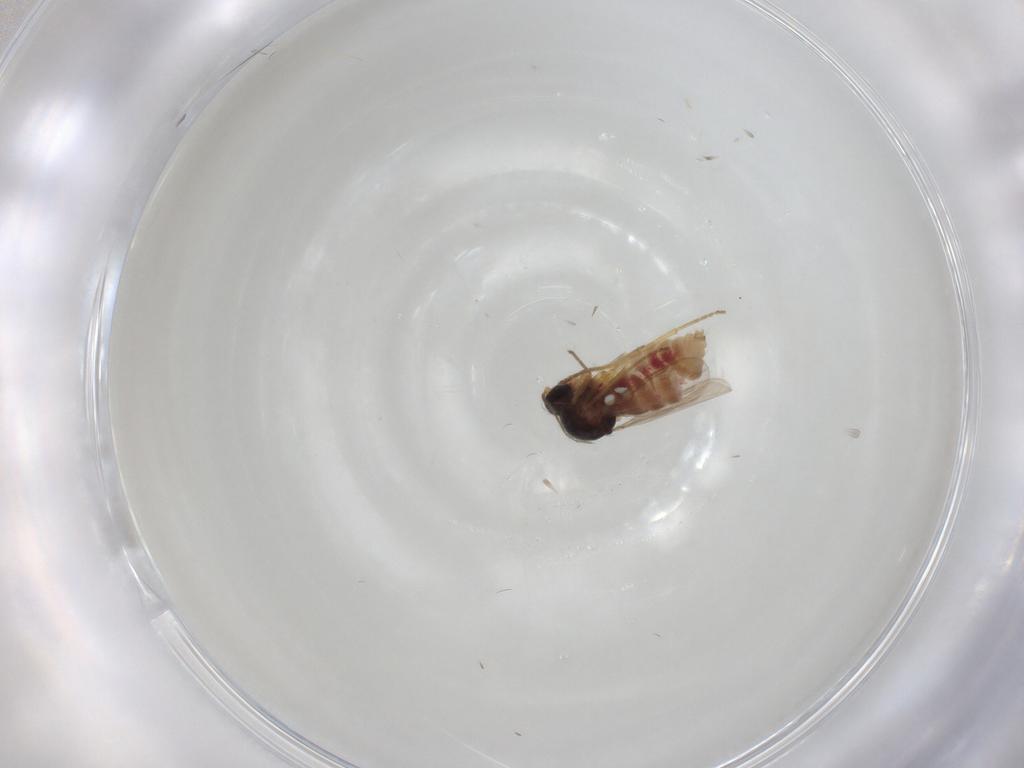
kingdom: Animalia
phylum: Arthropoda
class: Insecta
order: Diptera
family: Ceratopogonidae
